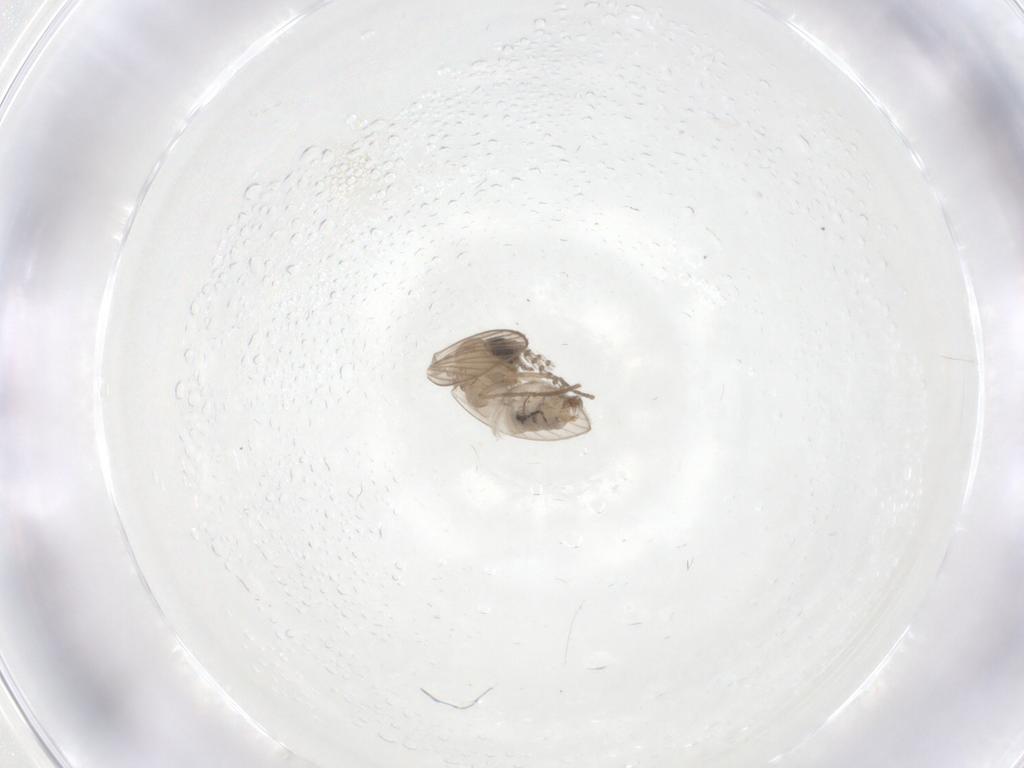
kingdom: Animalia
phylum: Arthropoda
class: Insecta
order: Diptera
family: Psychodidae
